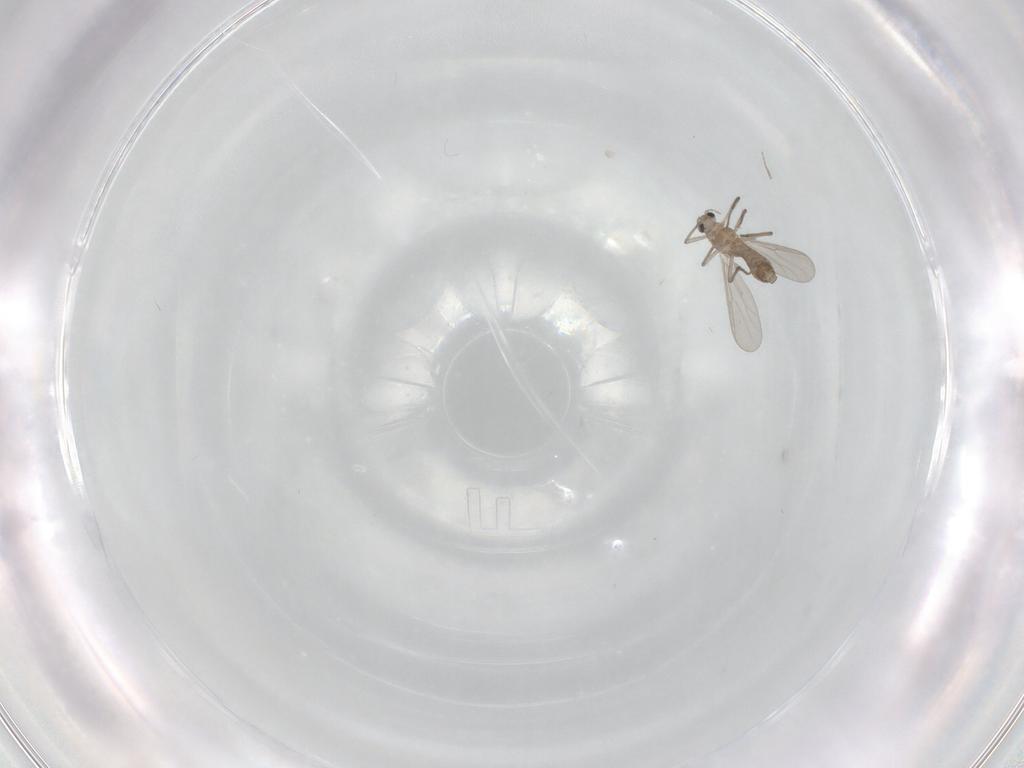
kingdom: Animalia
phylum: Arthropoda
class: Insecta
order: Diptera
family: Chironomidae
